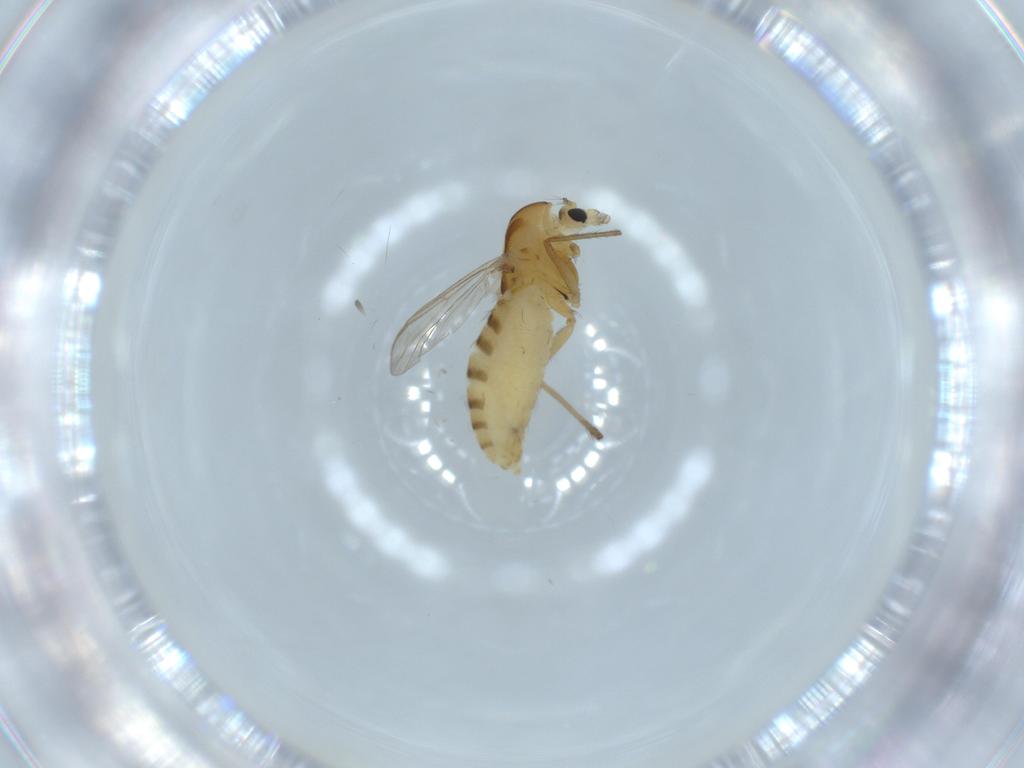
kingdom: Animalia
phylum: Arthropoda
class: Insecta
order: Diptera
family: Chironomidae
